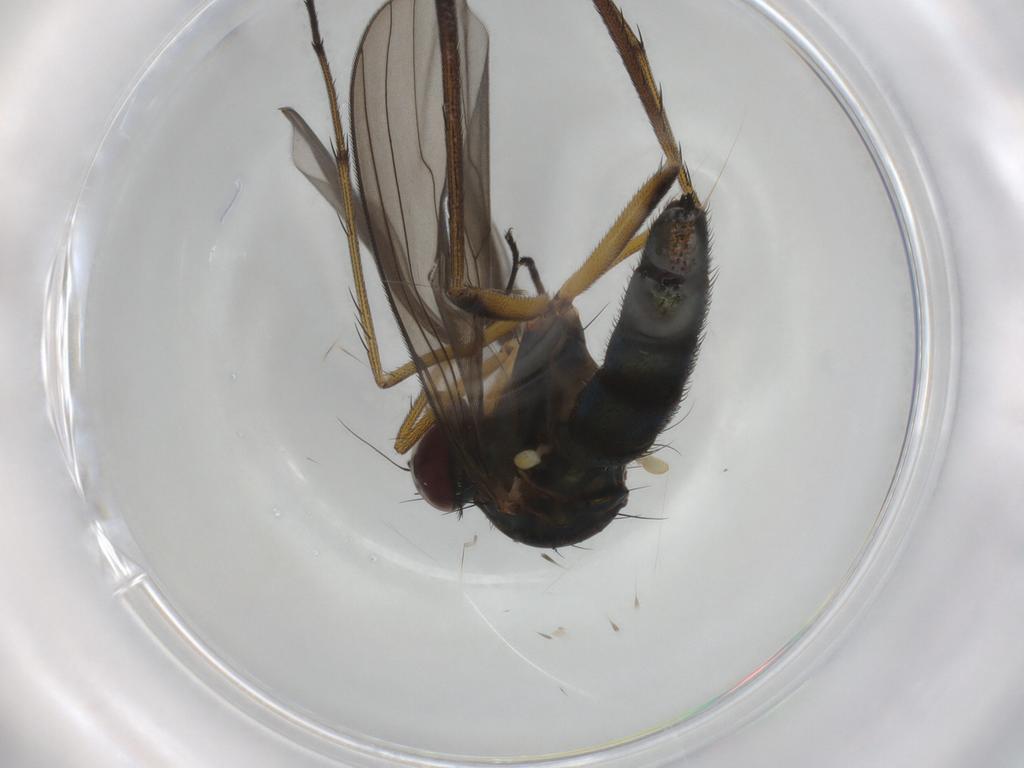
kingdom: Animalia
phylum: Arthropoda
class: Insecta
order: Diptera
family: Dolichopodidae
